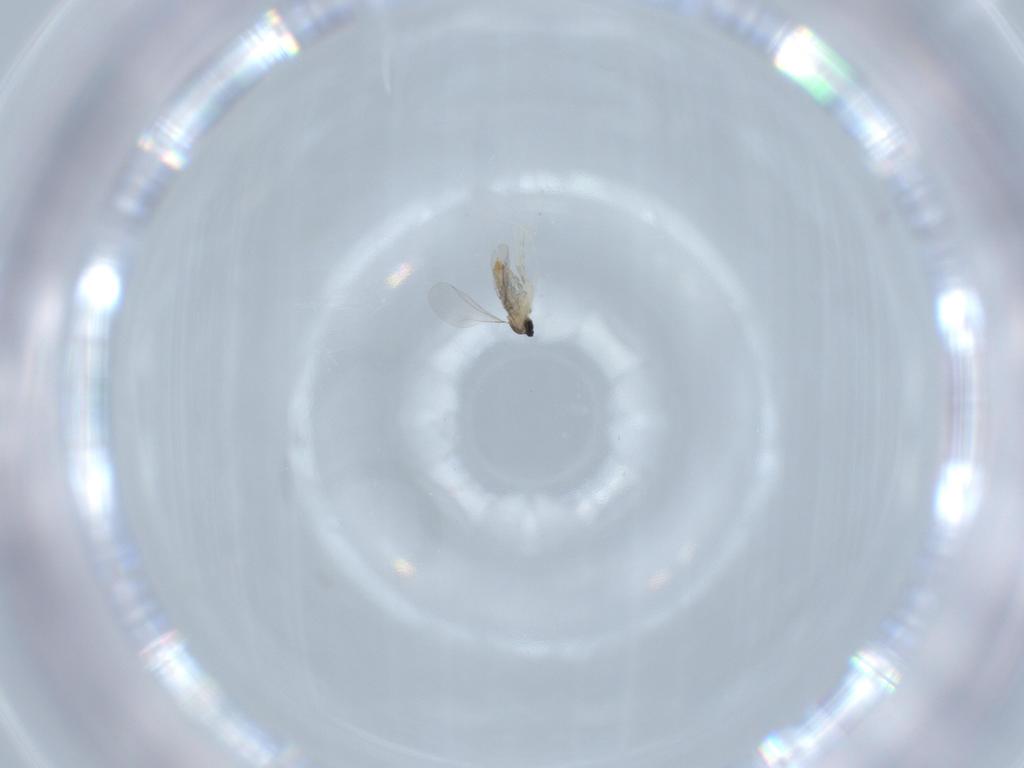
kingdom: Animalia
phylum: Arthropoda
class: Insecta
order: Diptera
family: Cecidomyiidae
